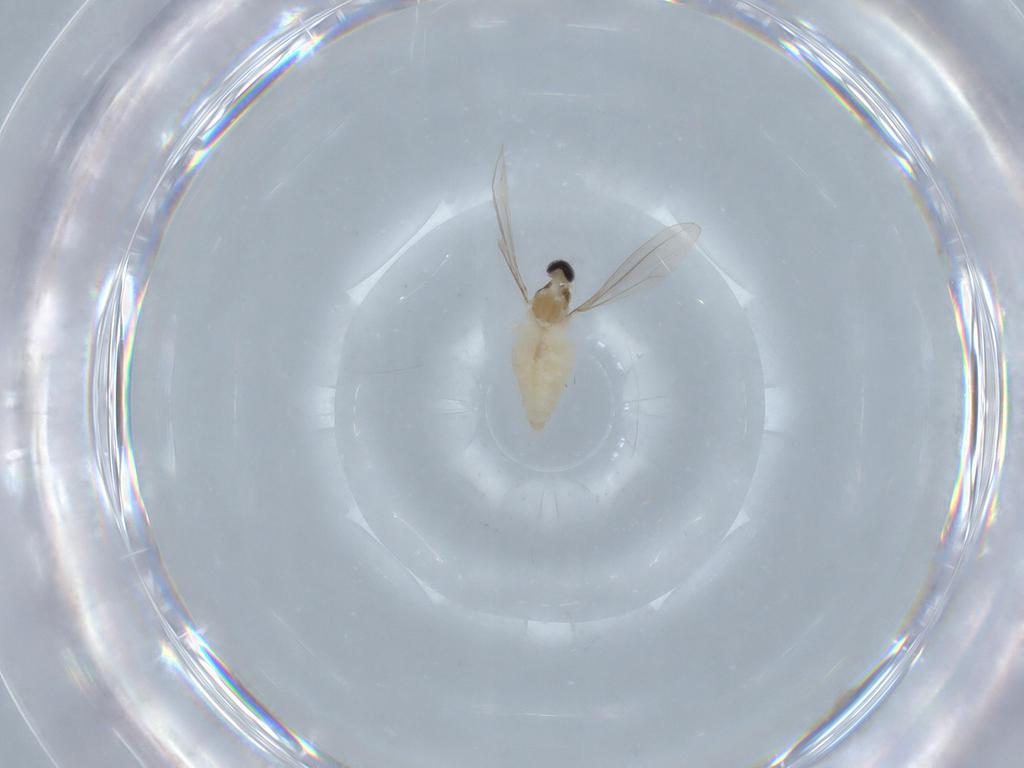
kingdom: Animalia
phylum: Arthropoda
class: Insecta
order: Diptera
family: Cecidomyiidae
